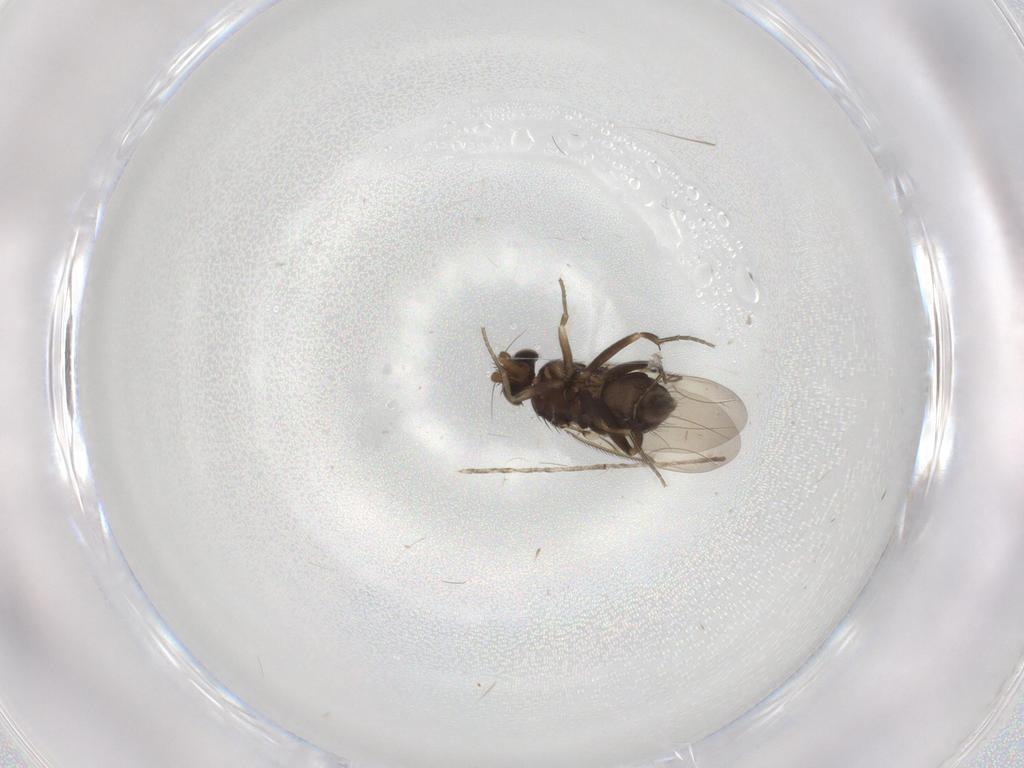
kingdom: Animalia
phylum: Arthropoda
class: Insecta
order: Diptera
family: Phoridae
